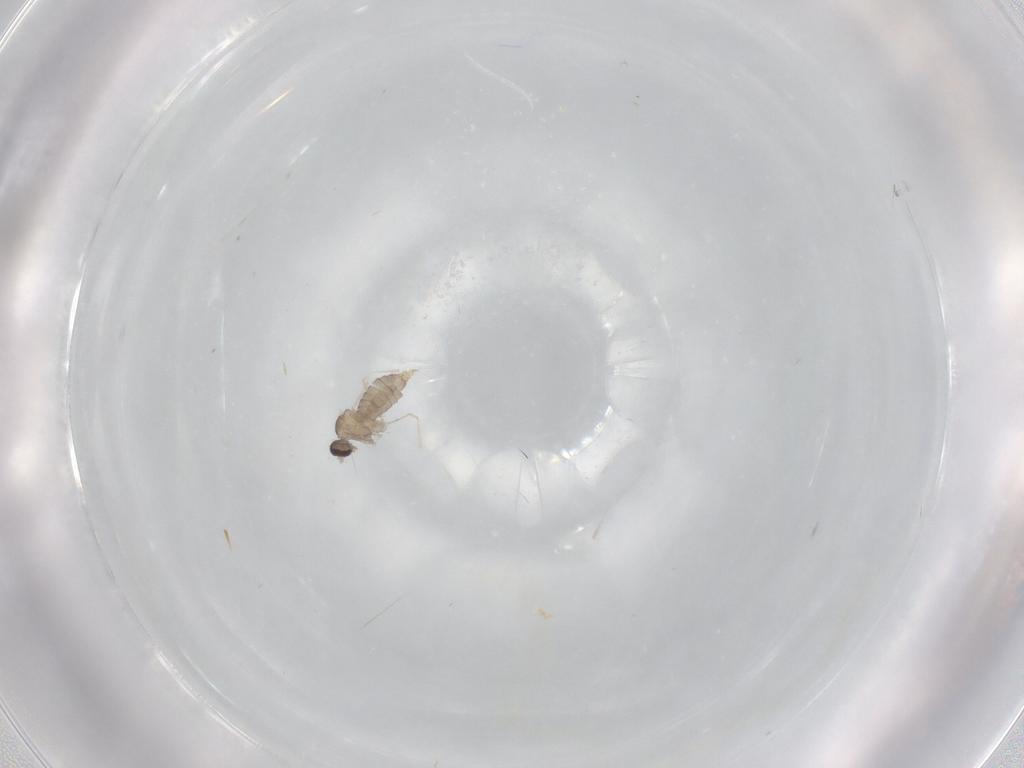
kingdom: Animalia
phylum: Arthropoda
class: Insecta
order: Diptera
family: Cecidomyiidae
